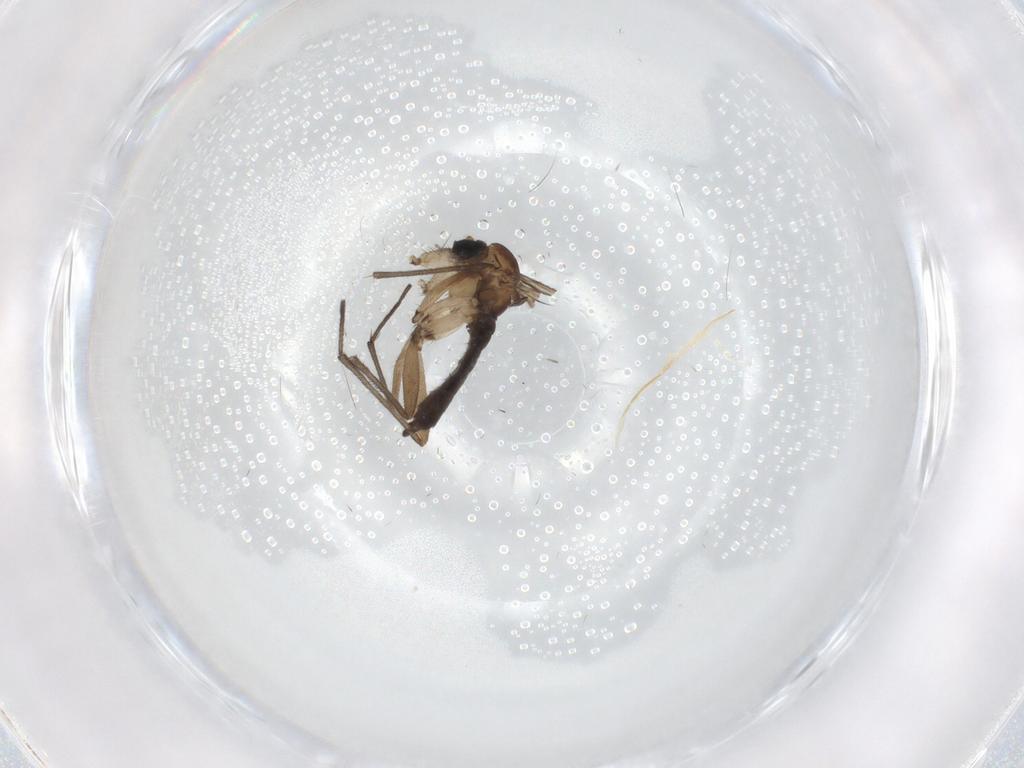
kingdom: Animalia
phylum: Arthropoda
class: Insecta
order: Diptera
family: Sciaridae
